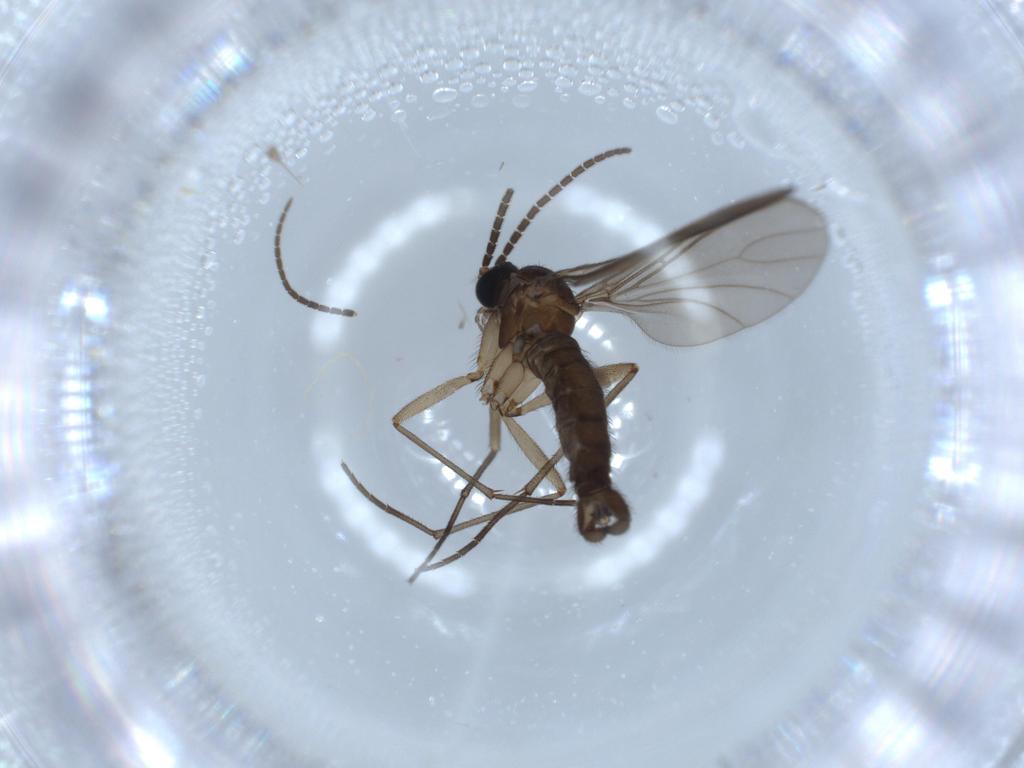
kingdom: Animalia
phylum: Arthropoda
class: Insecta
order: Diptera
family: Sciaridae
